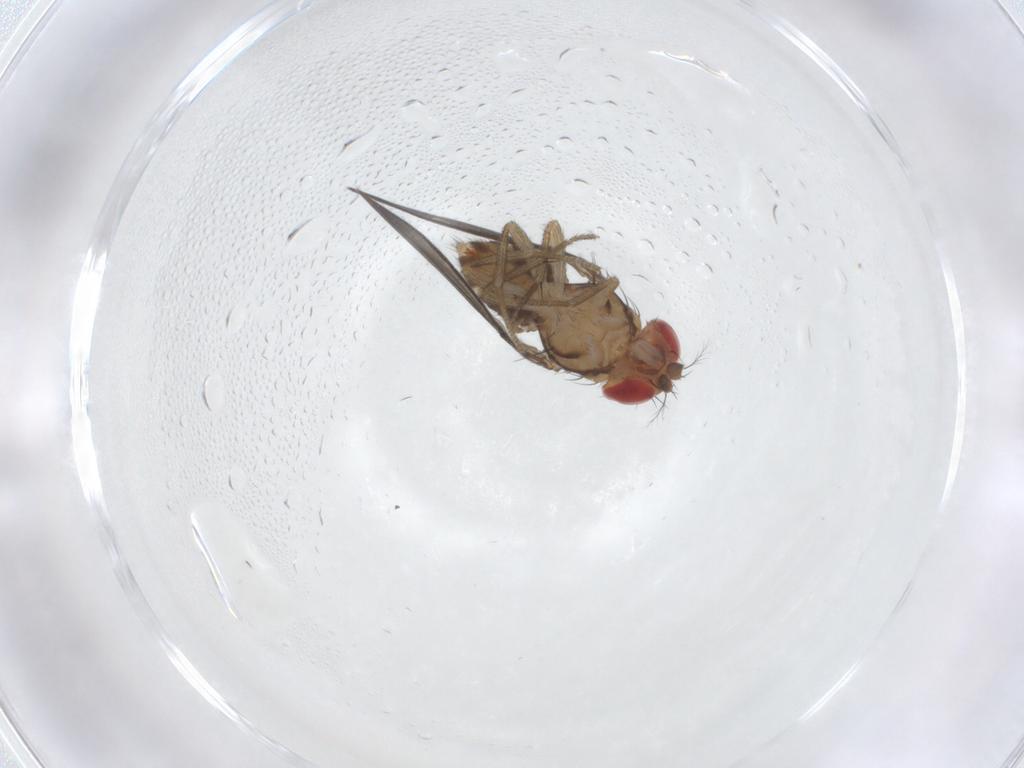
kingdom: Animalia
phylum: Arthropoda
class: Insecta
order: Diptera
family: Drosophilidae
